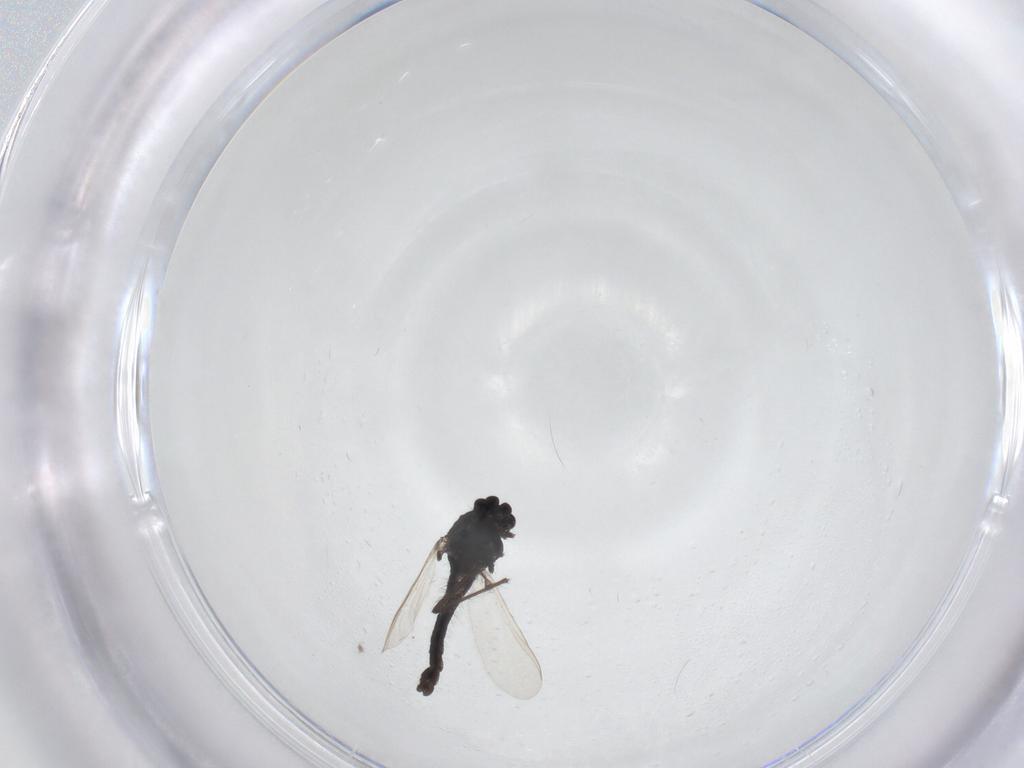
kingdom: Animalia
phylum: Arthropoda
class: Insecta
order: Diptera
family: Chironomidae
